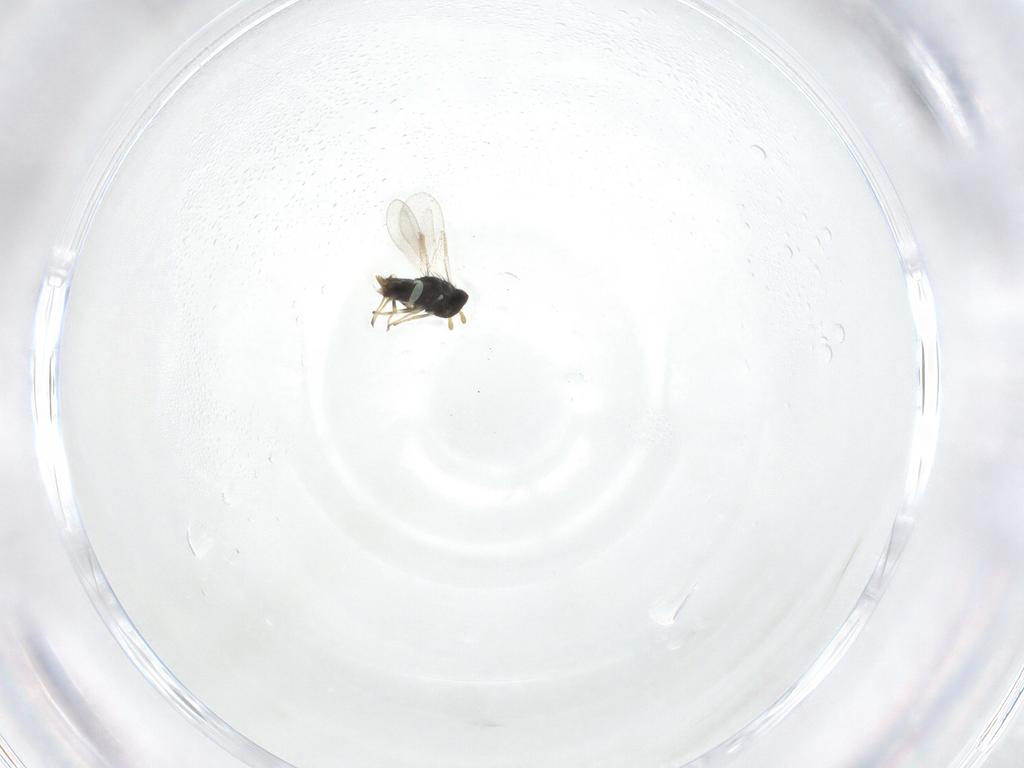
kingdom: Animalia
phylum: Arthropoda
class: Insecta
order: Hymenoptera
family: Aphelinidae
